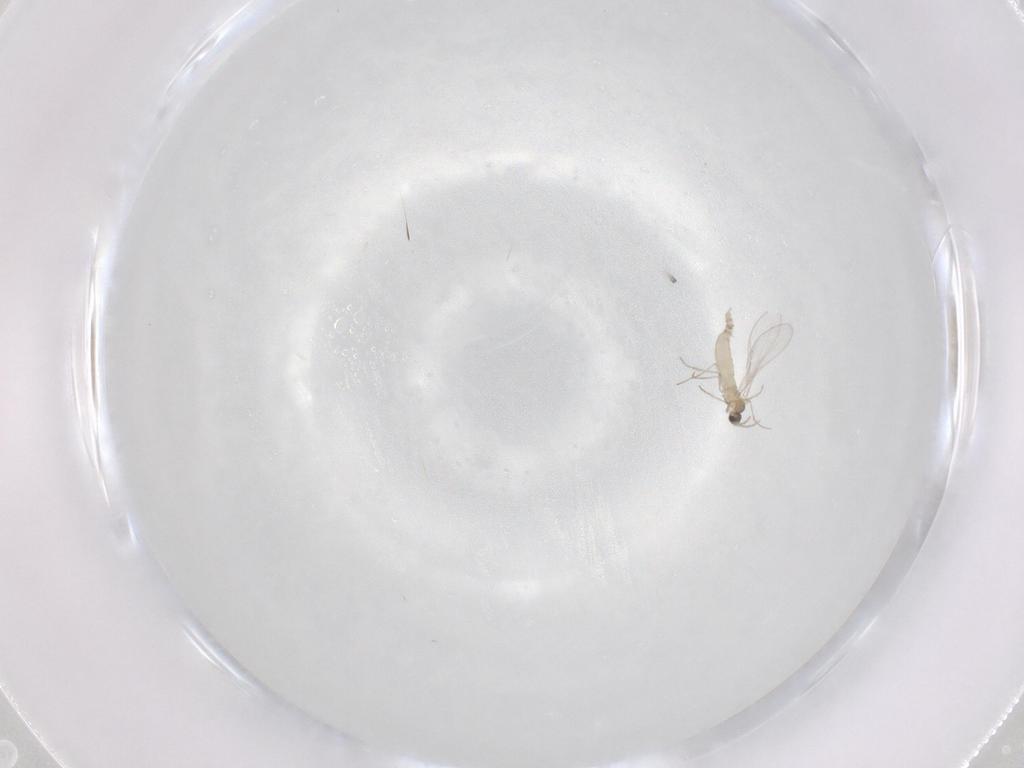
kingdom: Animalia
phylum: Arthropoda
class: Insecta
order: Diptera
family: Cecidomyiidae
